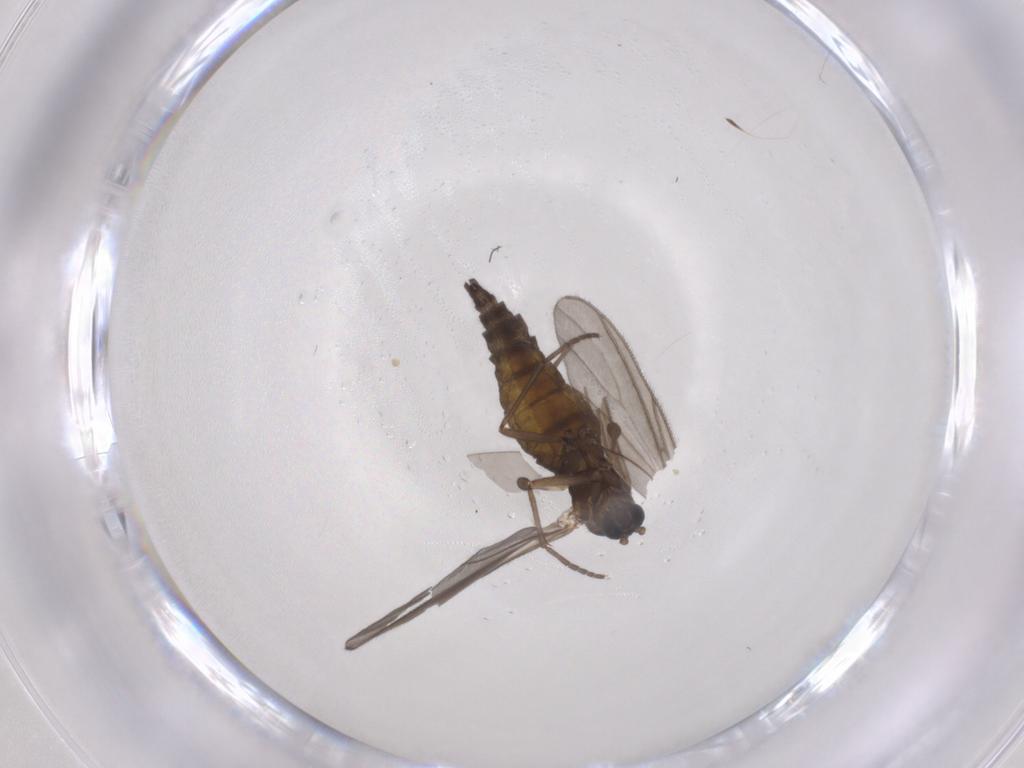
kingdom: Animalia
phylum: Arthropoda
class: Insecta
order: Diptera
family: Sciaridae
